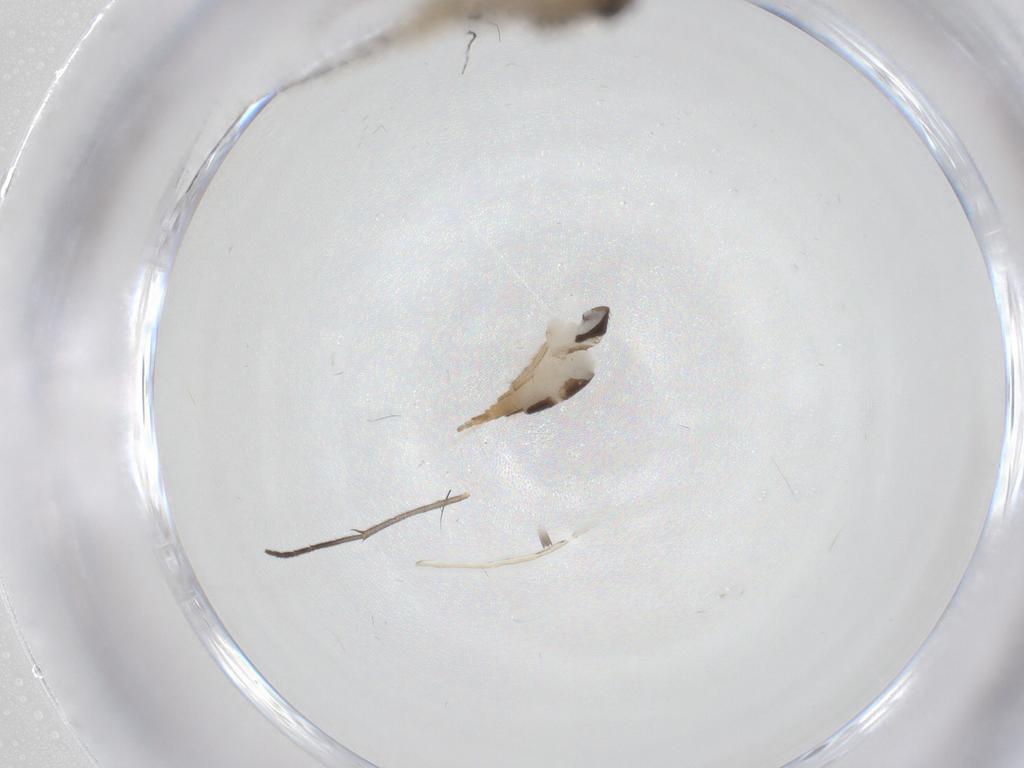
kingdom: Animalia
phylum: Arthropoda
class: Insecta
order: Diptera
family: Sciaridae
